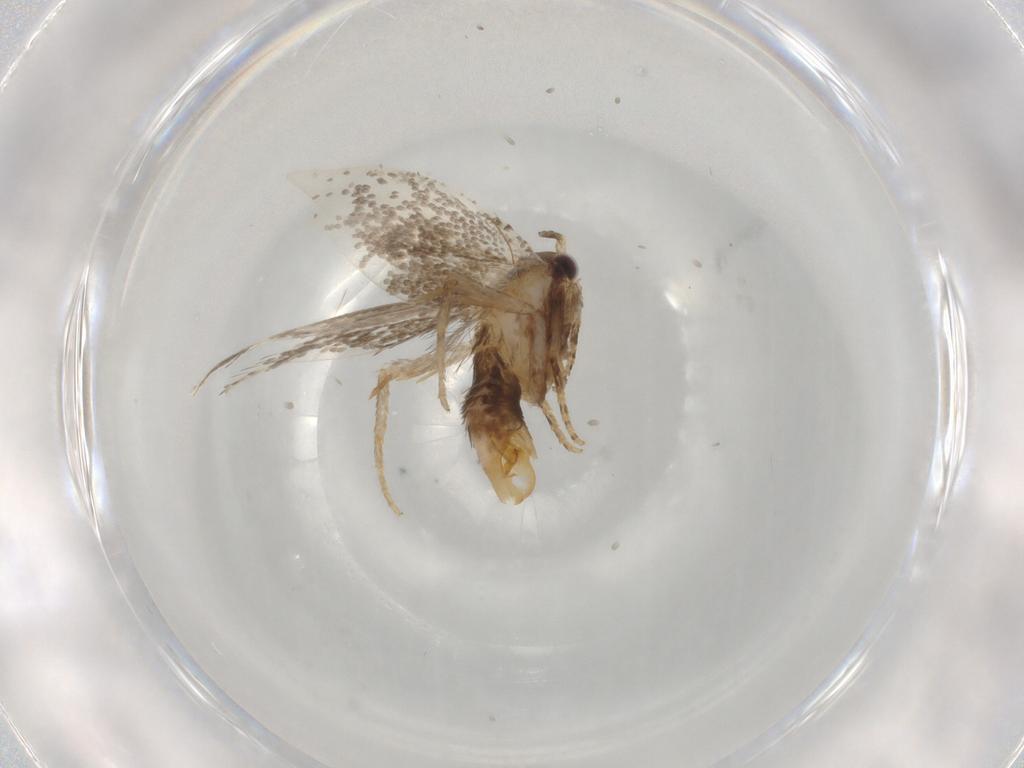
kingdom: Animalia
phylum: Arthropoda
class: Insecta
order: Lepidoptera
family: Tineidae
